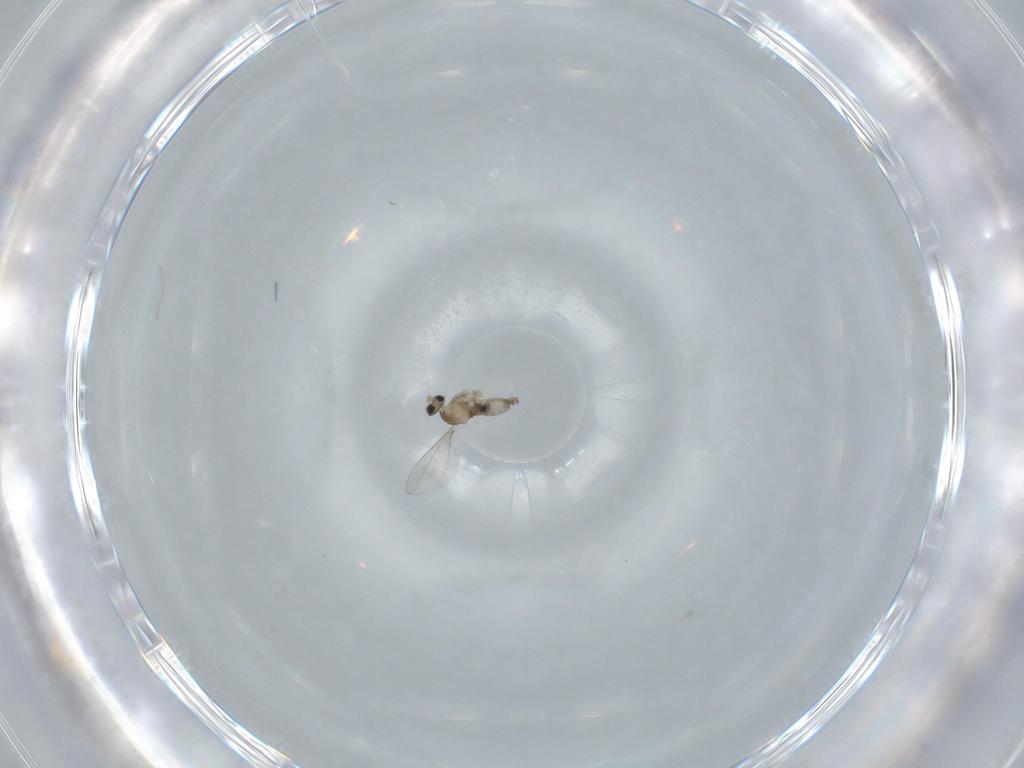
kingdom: Animalia
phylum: Arthropoda
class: Insecta
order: Diptera
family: Cecidomyiidae
